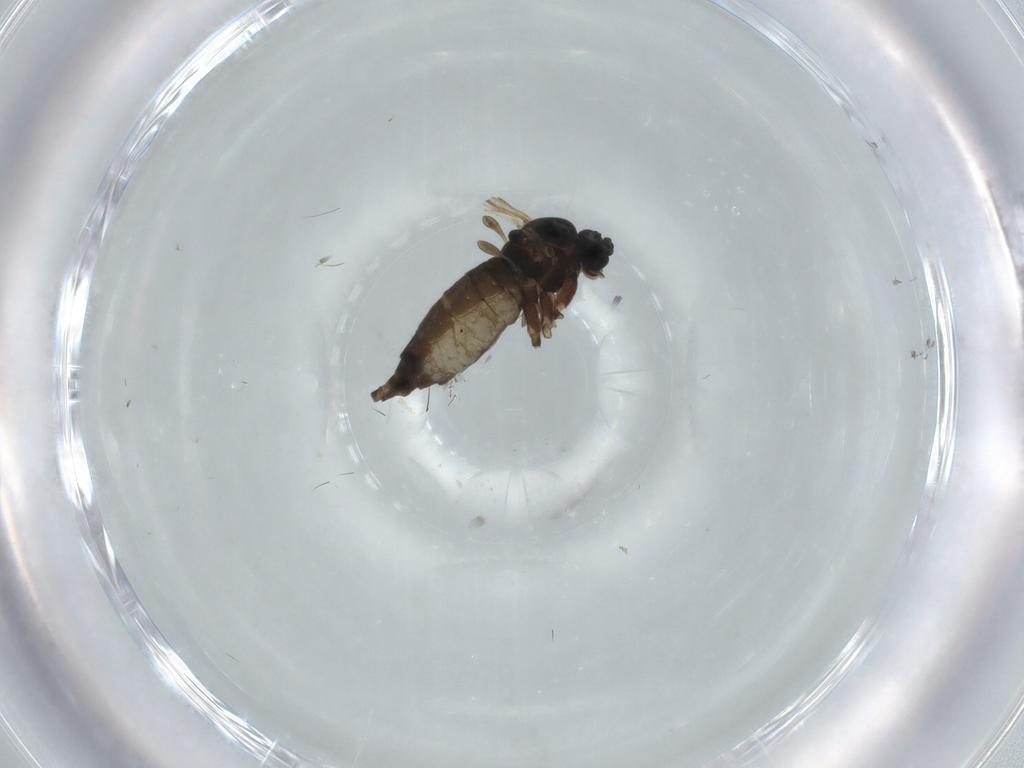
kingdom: Animalia
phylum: Arthropoda
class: Insecta
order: Diptera
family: Sciaridae
